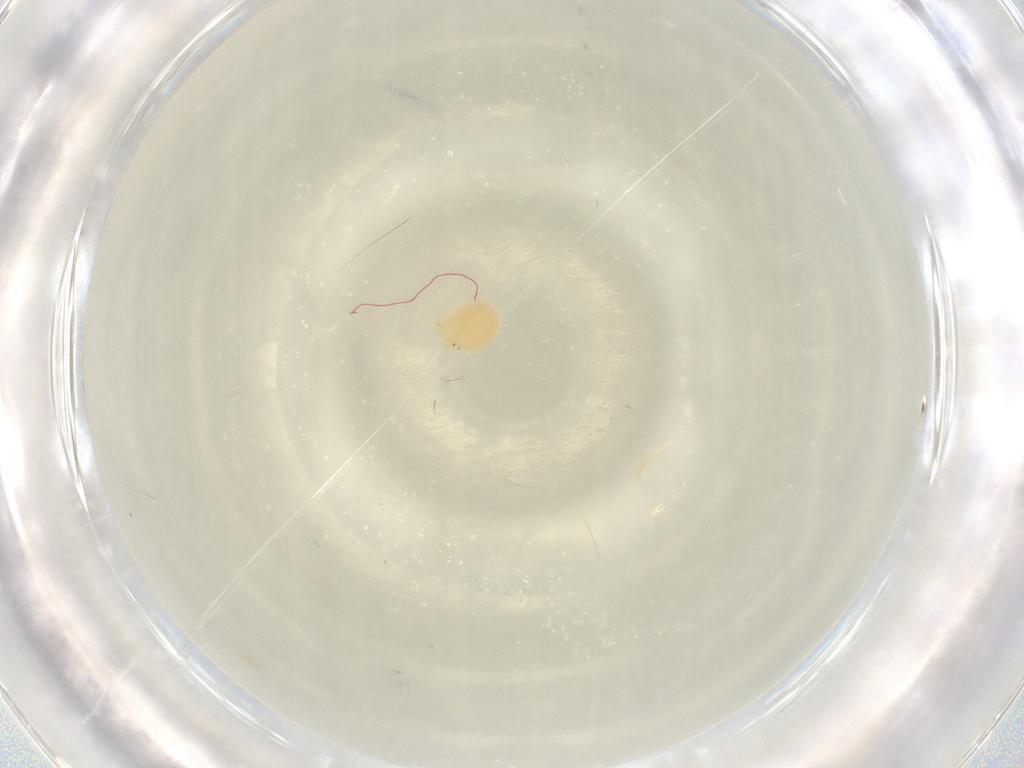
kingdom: Animalia
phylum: Arthropoda
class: Arachnida
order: Trombidiformes
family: Hydryphantidae
